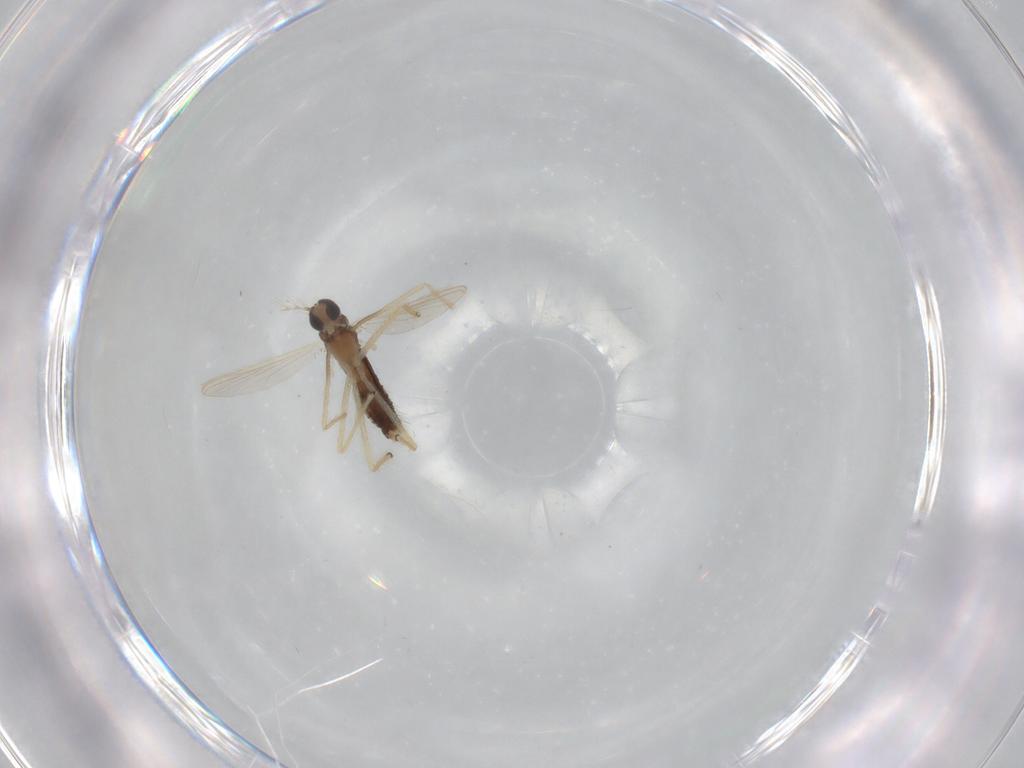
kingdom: Animalia
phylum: Arthropoda
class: Insecta
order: Diptera
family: Chironomidae
